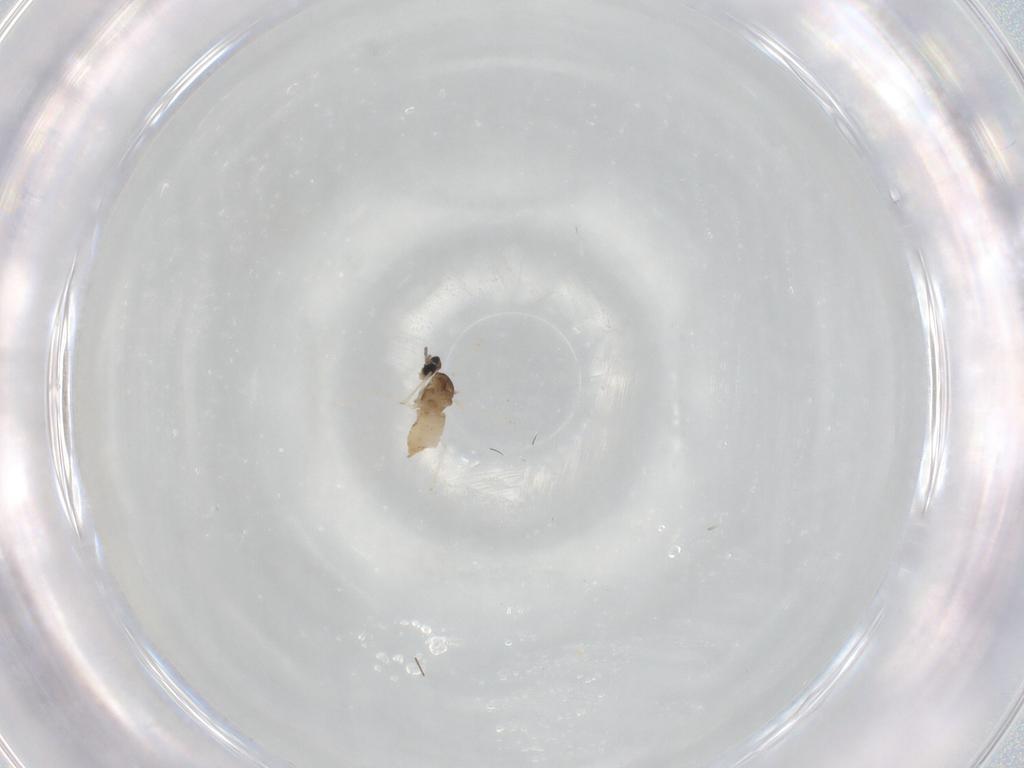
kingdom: Animalia
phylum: Arthropoda
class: Insecta
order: Diptera
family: Cecidomyiidae
